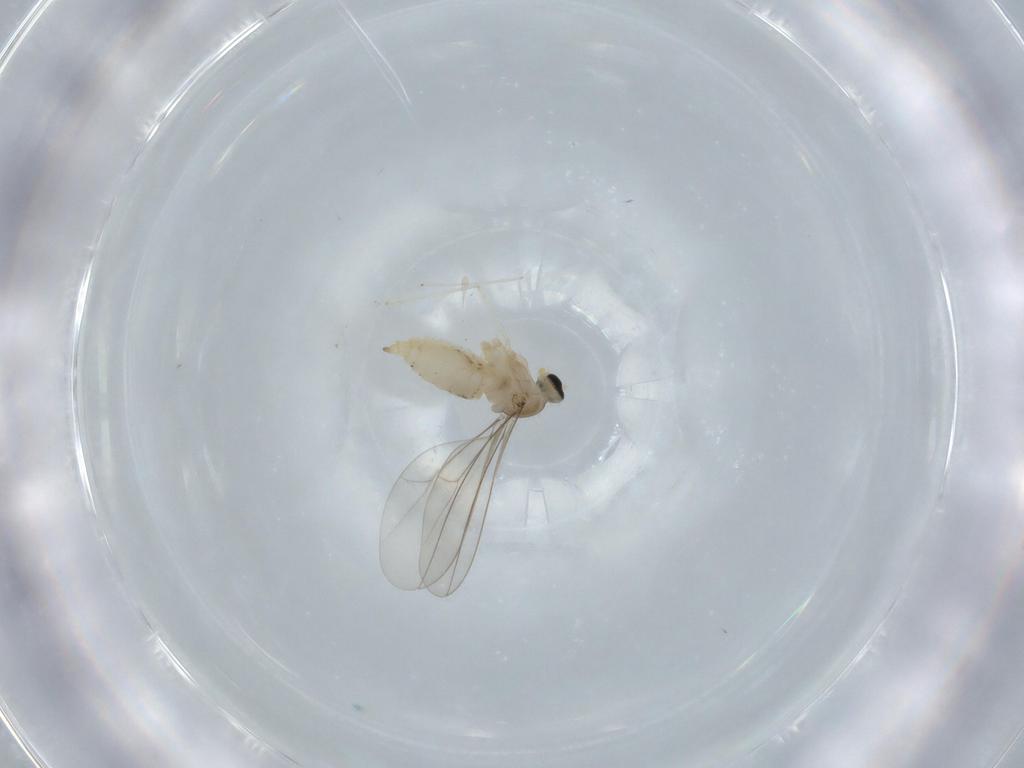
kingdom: Animalia
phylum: Arthropoda
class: Insecta
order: Diptera
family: Cecidomyiidae
